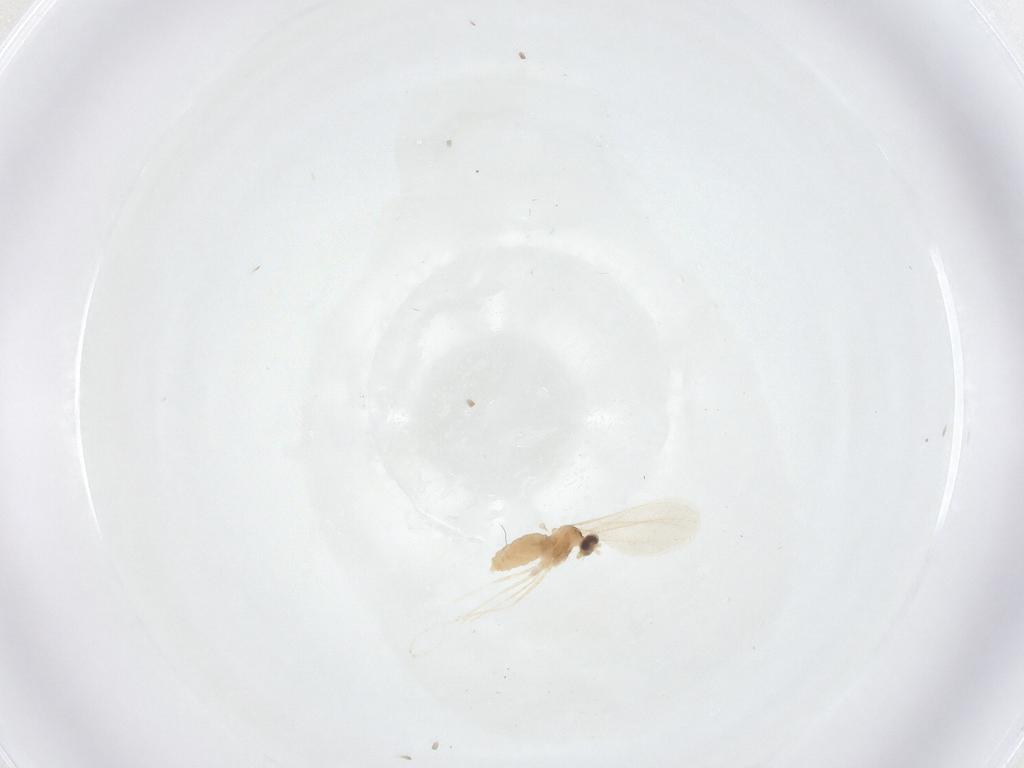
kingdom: Animalia
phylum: Arthropoda
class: Insecta
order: Diptera
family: Cecidomyiidae
